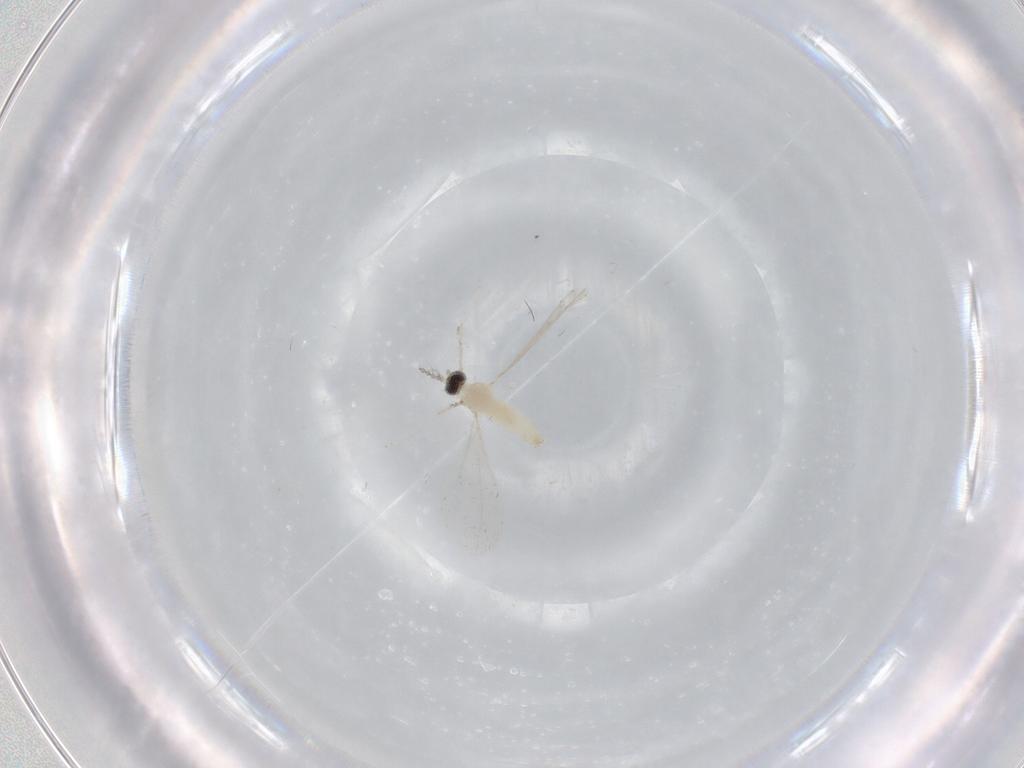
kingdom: Animalia
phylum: Arthropoda
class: Insecta
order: Diptera
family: Cecidomyiidae
